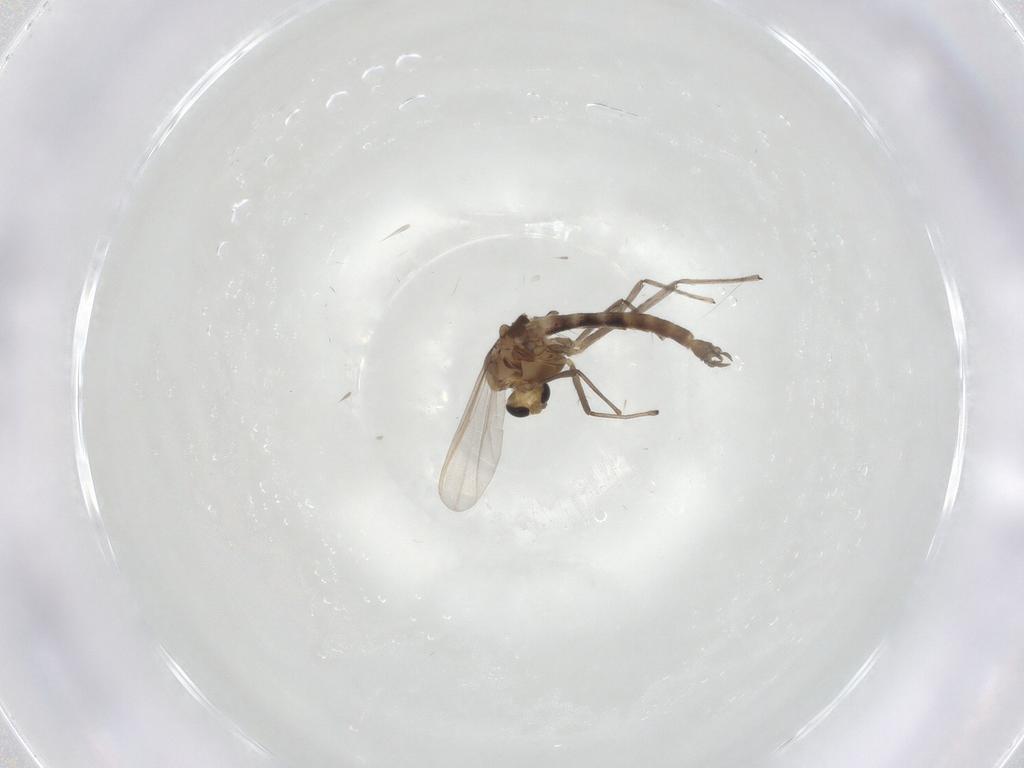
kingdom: Animalia
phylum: Arthropoda
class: Insecta
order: Diptera
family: Chironomidae
